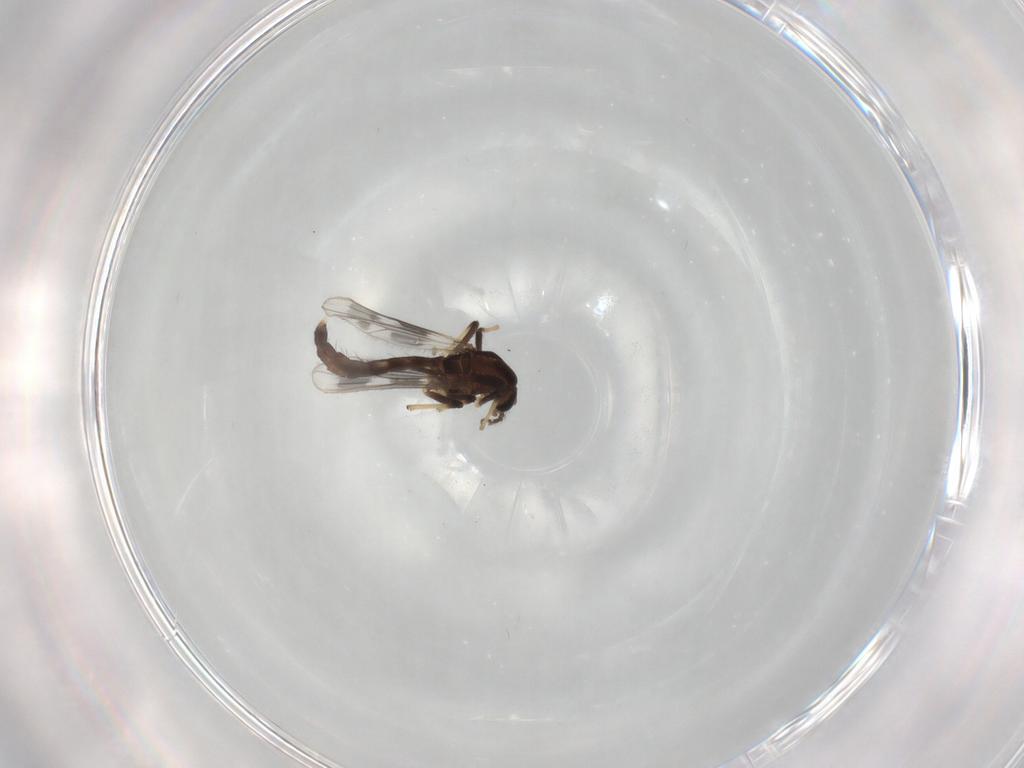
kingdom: Animalia
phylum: Arthropoda
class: Insecta
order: Diptera
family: Chironomidae
